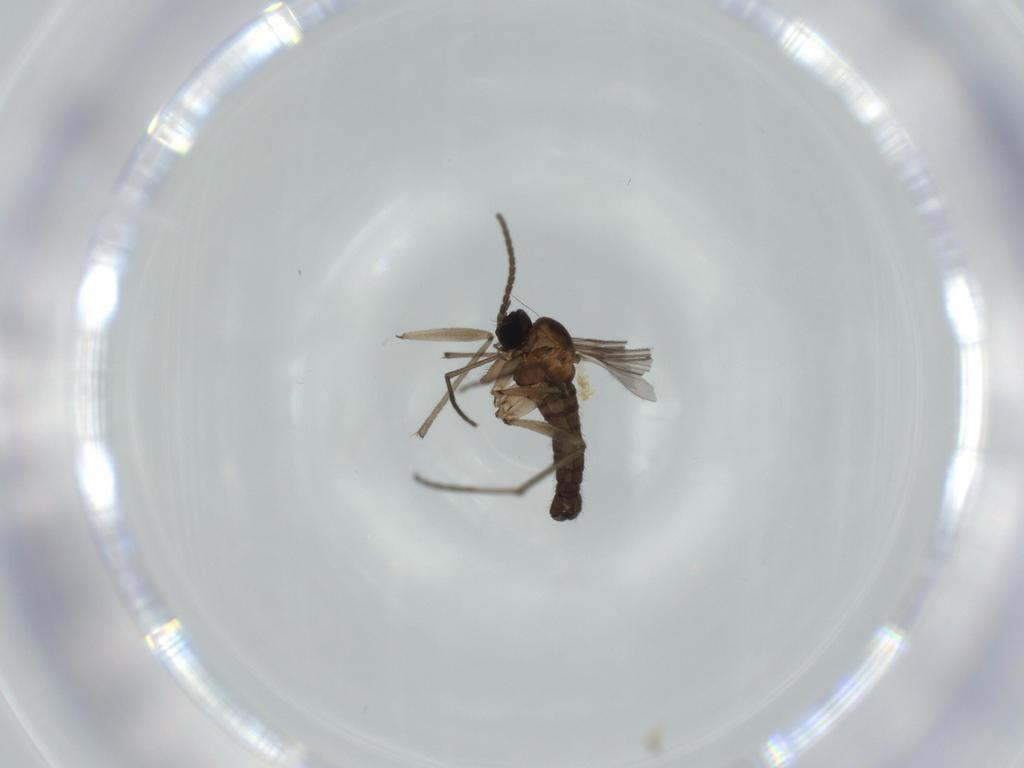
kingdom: Animalia
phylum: Arthropoda
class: Insecta
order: Diptera
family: Sciaridae
